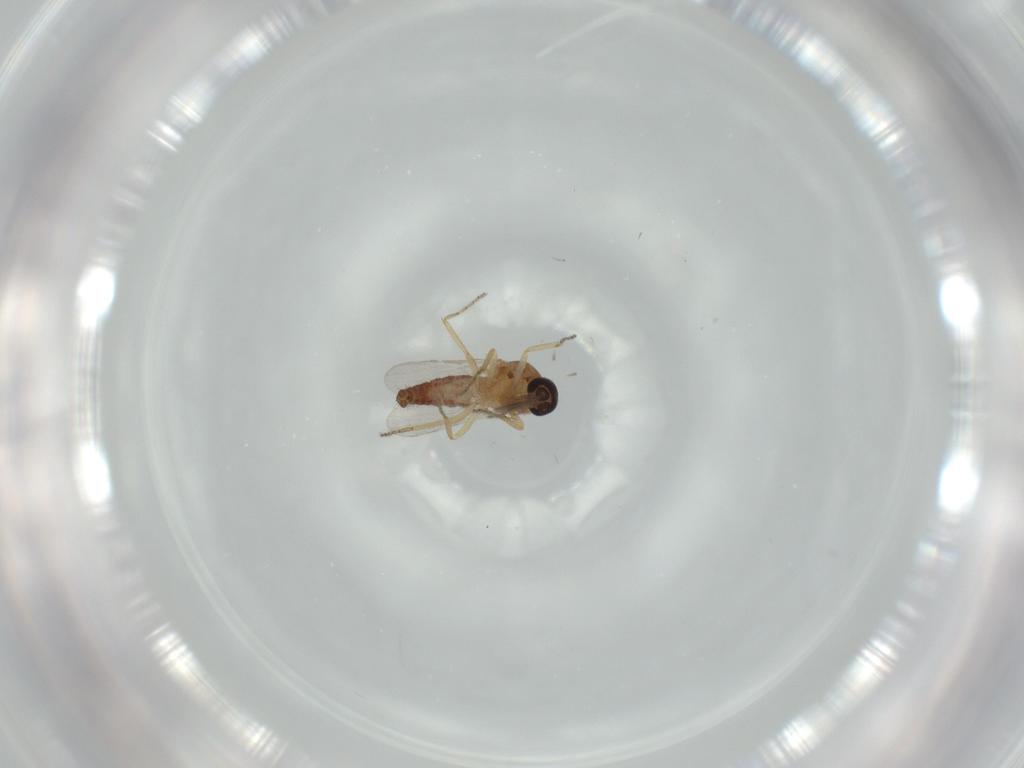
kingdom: Animalia
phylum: Arthropoda
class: Insecta
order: Diptera
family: Ceratopogonidae
